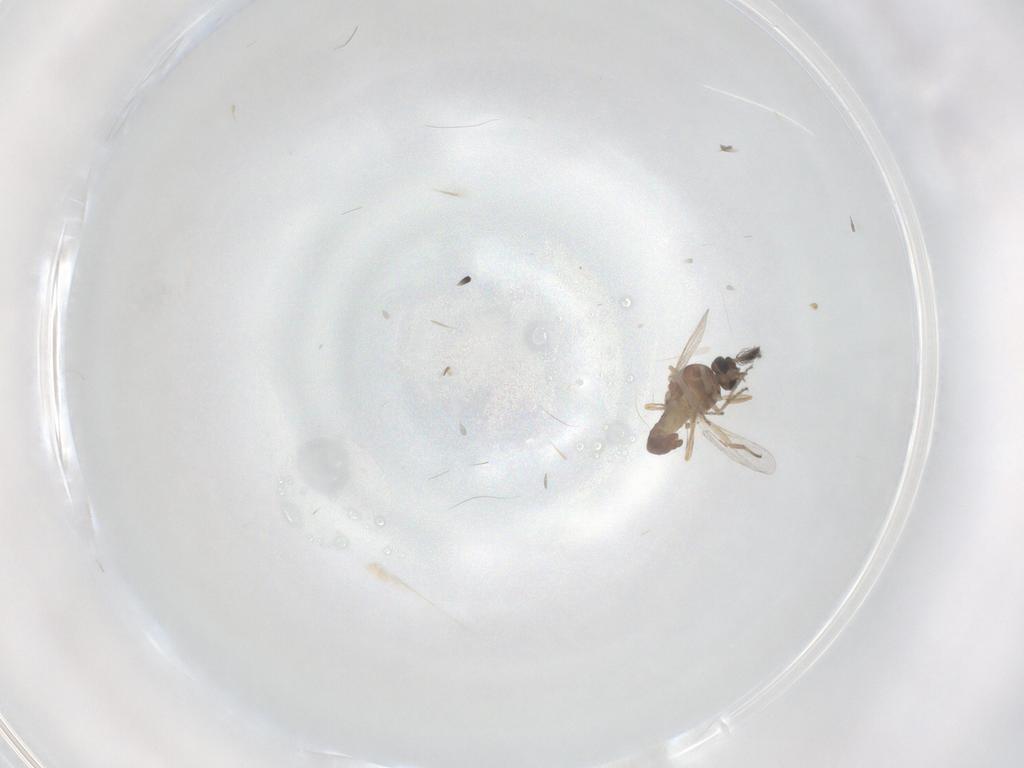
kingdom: Animalia
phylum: Arthropoda
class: Insecta
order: Diptera
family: Ceratopogonidae
